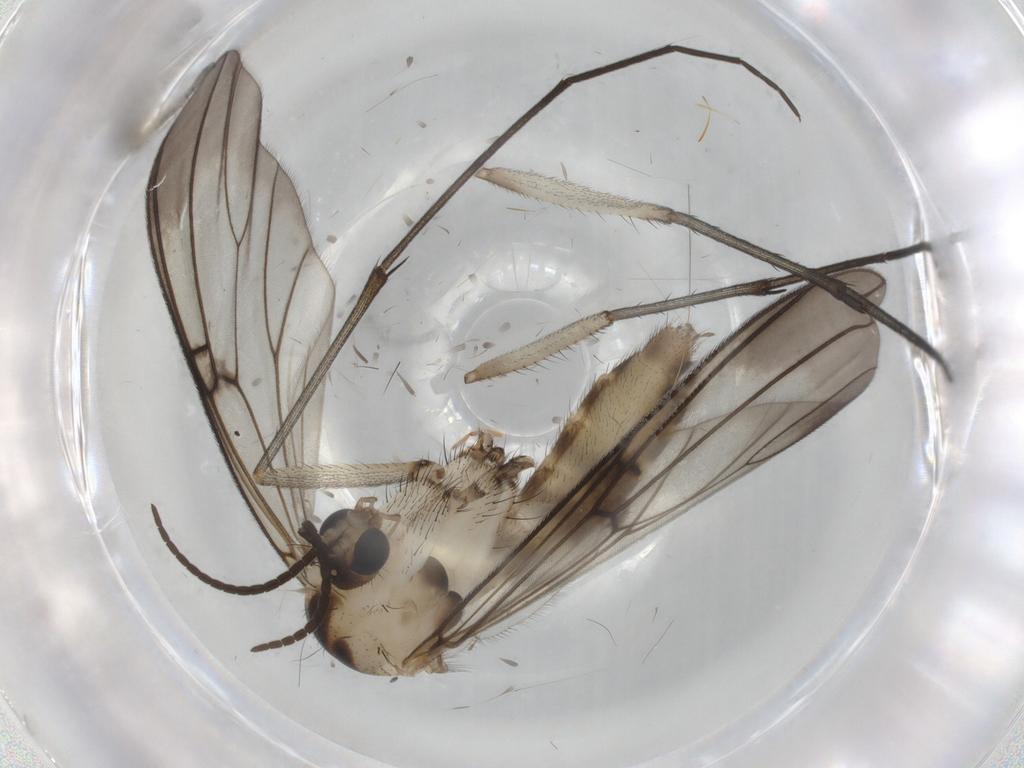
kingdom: Animalia
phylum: Arthropoda
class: Insecta
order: Diptera
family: Mycetophilidae
